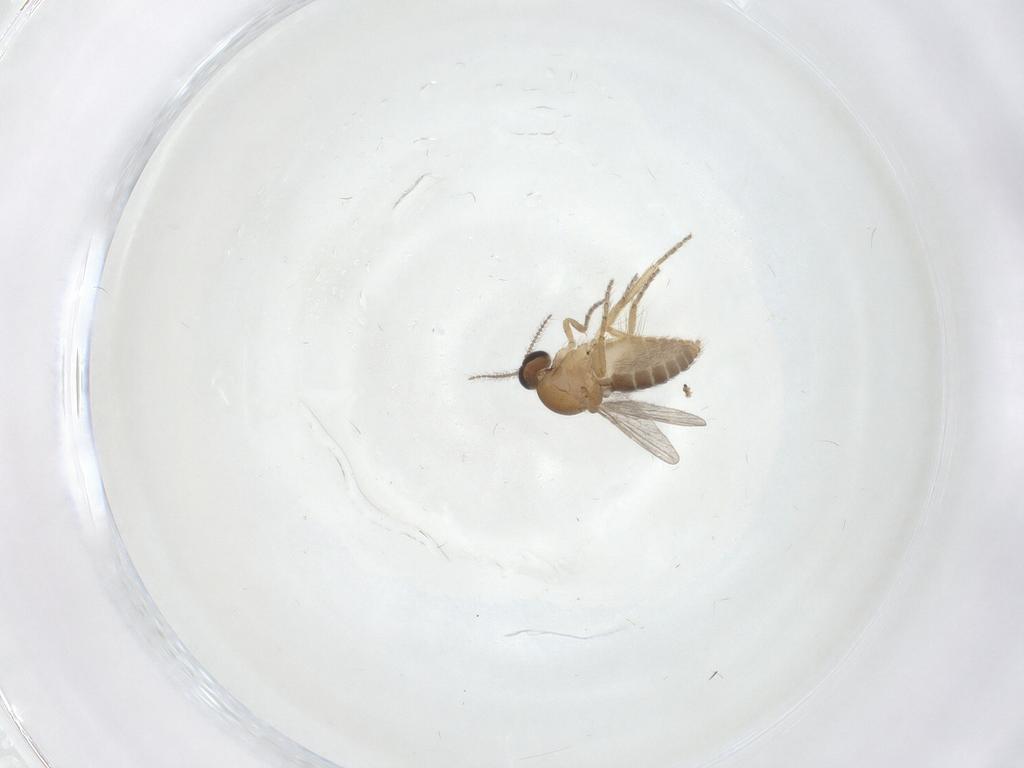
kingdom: Animalia
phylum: Arthropoda
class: Insecta
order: Diptera
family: Ceratopogonidae
